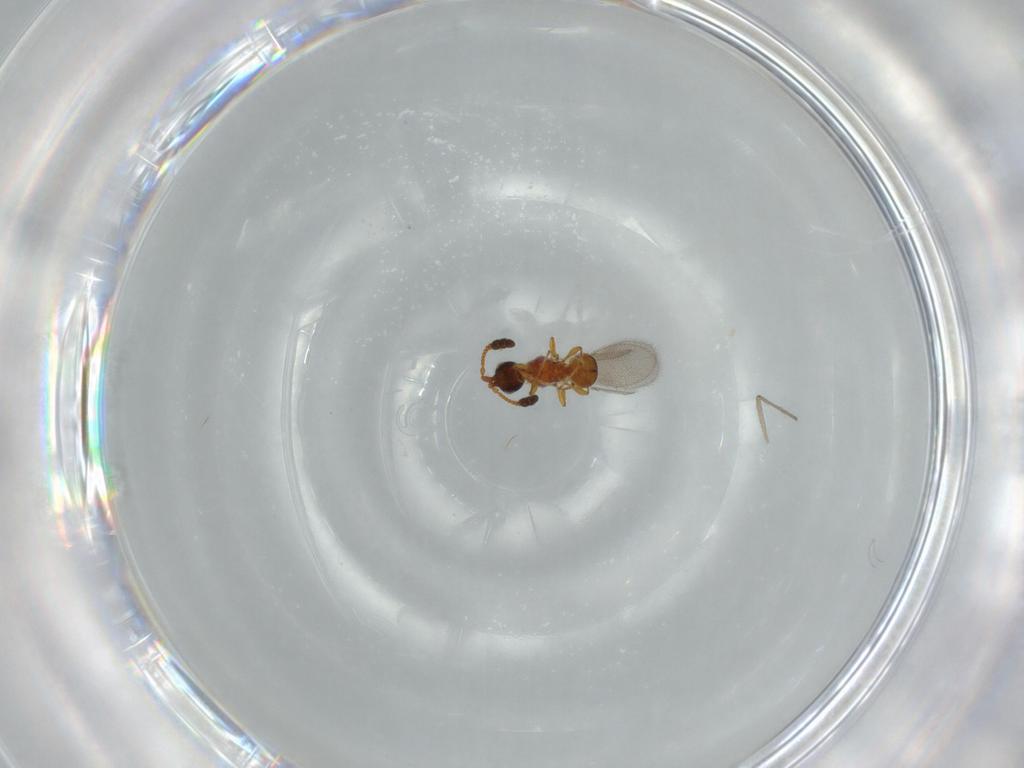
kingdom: Animalia
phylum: Arthropoda
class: Insecta
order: Hymenoptera
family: Diapriidae
